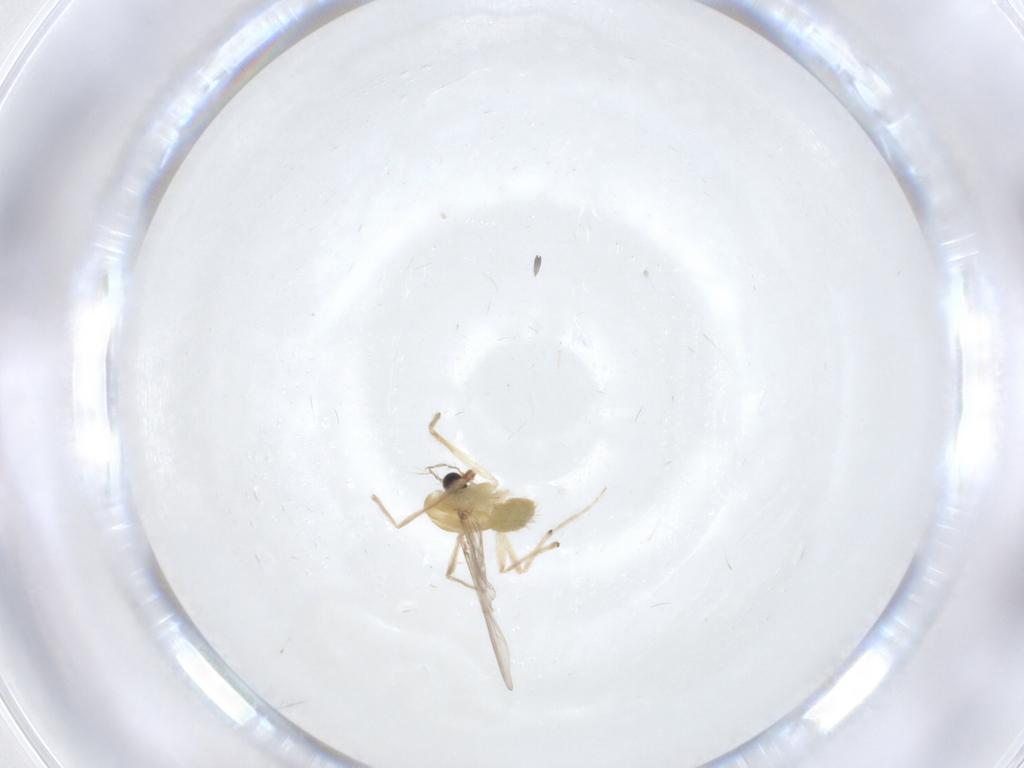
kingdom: Animalia
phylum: Arthropoda
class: Insecta
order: Diptera
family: Chironomidae
